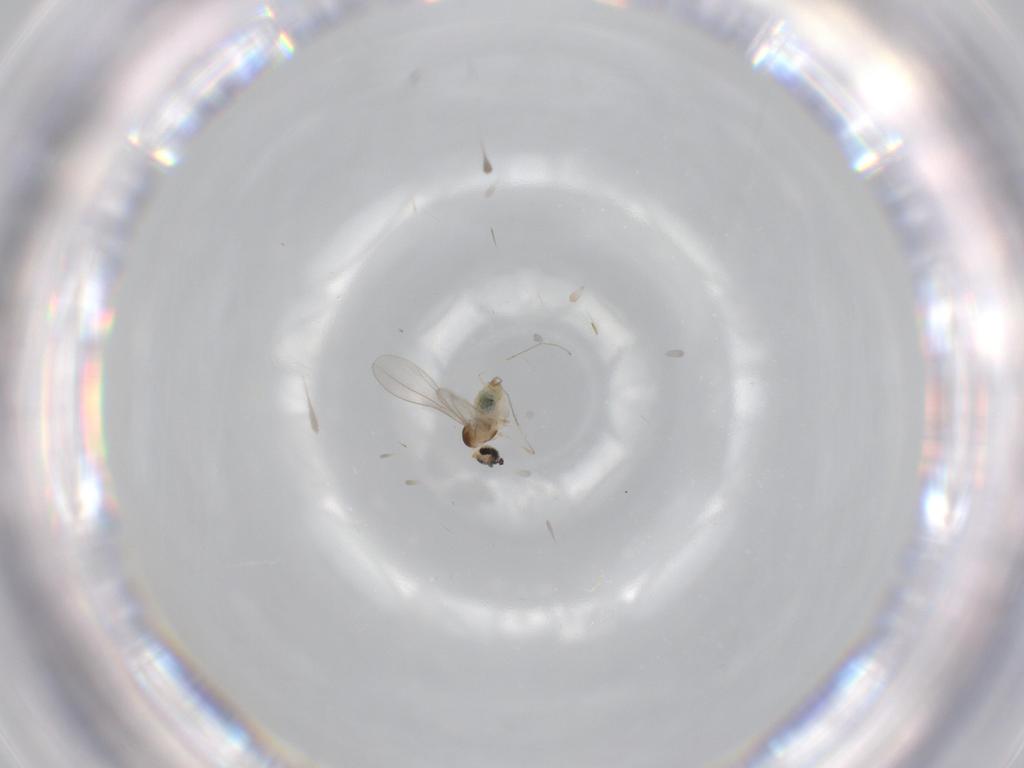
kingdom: Animalia
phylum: Arthropoda
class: Insecta
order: Diptera
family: Cecidomyiidae
